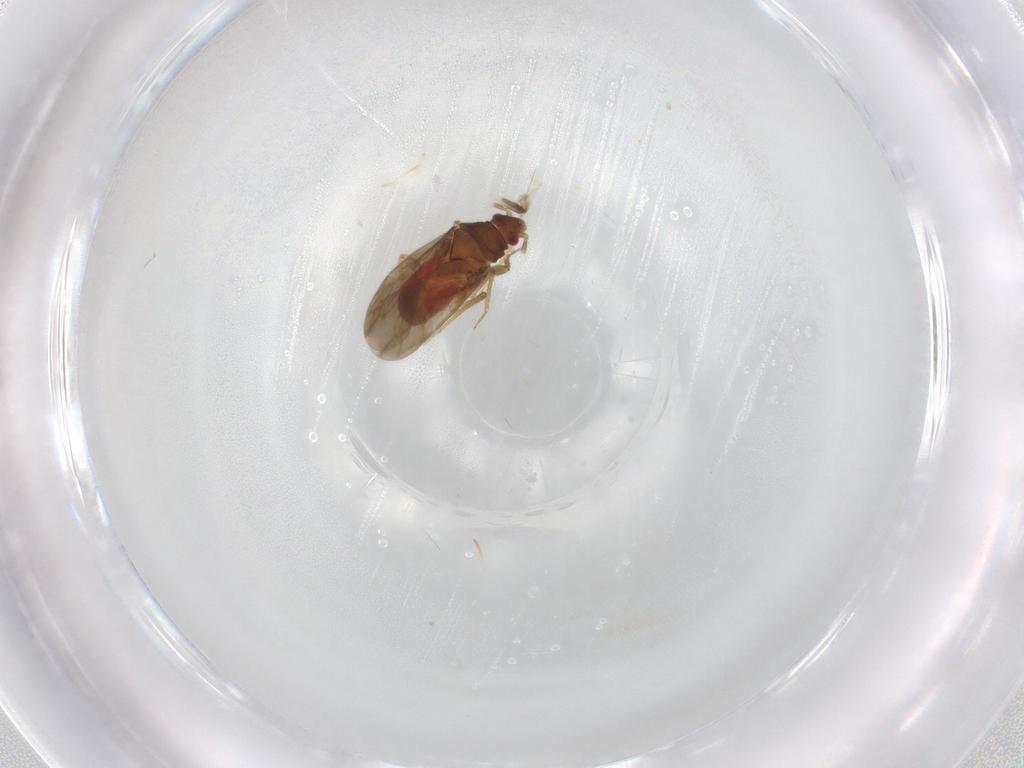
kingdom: Animalia
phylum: Arthropoda
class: Insecta
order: Hemiptera
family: Ceratocombidae
